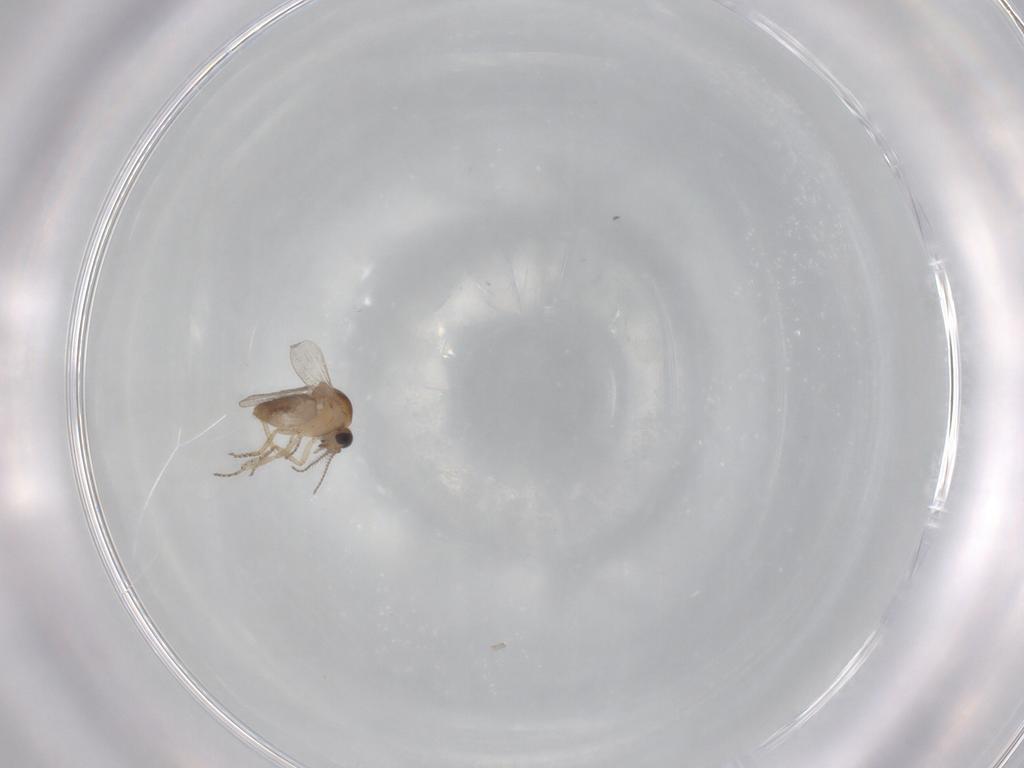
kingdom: Animalia
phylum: Arthropoda
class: Insecta
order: Diptera
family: Ceratopogonidae
